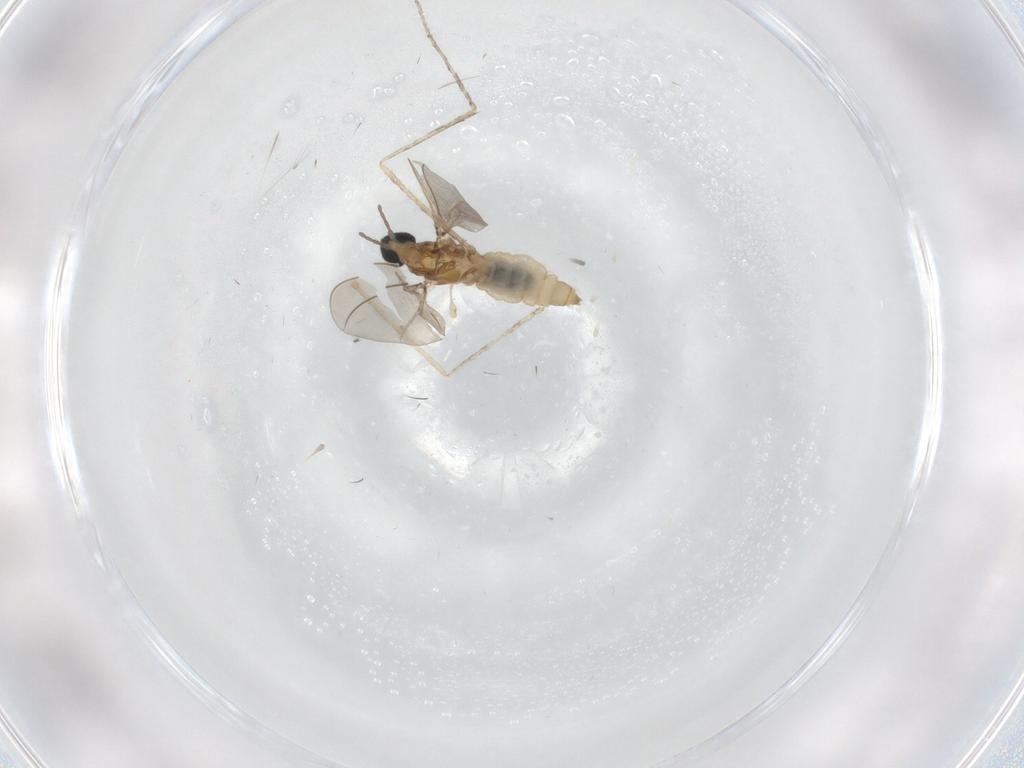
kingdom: Animalia
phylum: Arthropoda
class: Insecta
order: Diptera
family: Cecidomyiidae
